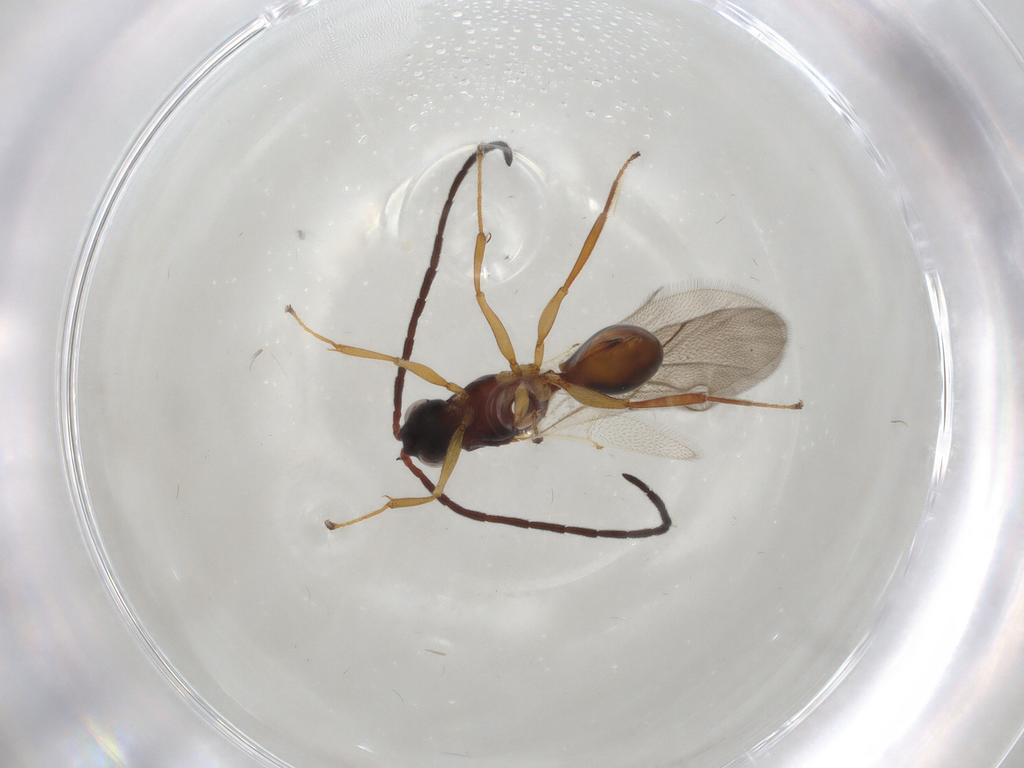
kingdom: Animalia
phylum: Arthropoda
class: Insecta
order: Hymenoptera
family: Figitidae
